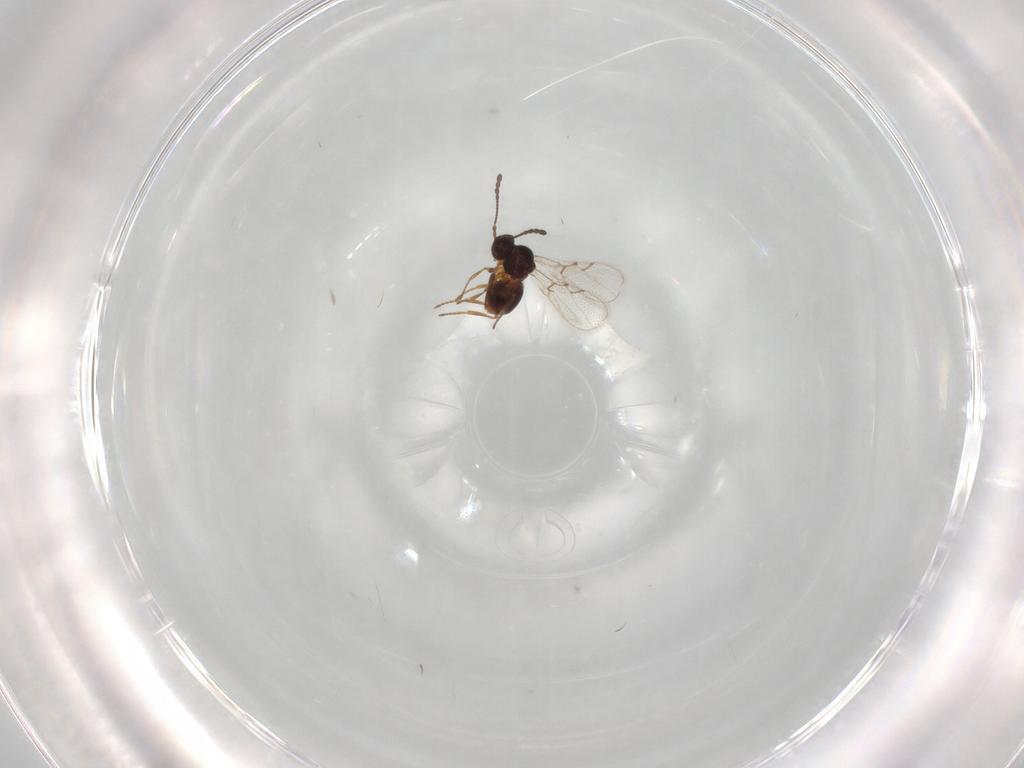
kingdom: Animalia
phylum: Arthropoda
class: Insecta
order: Hymenoptera
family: Figitidae
